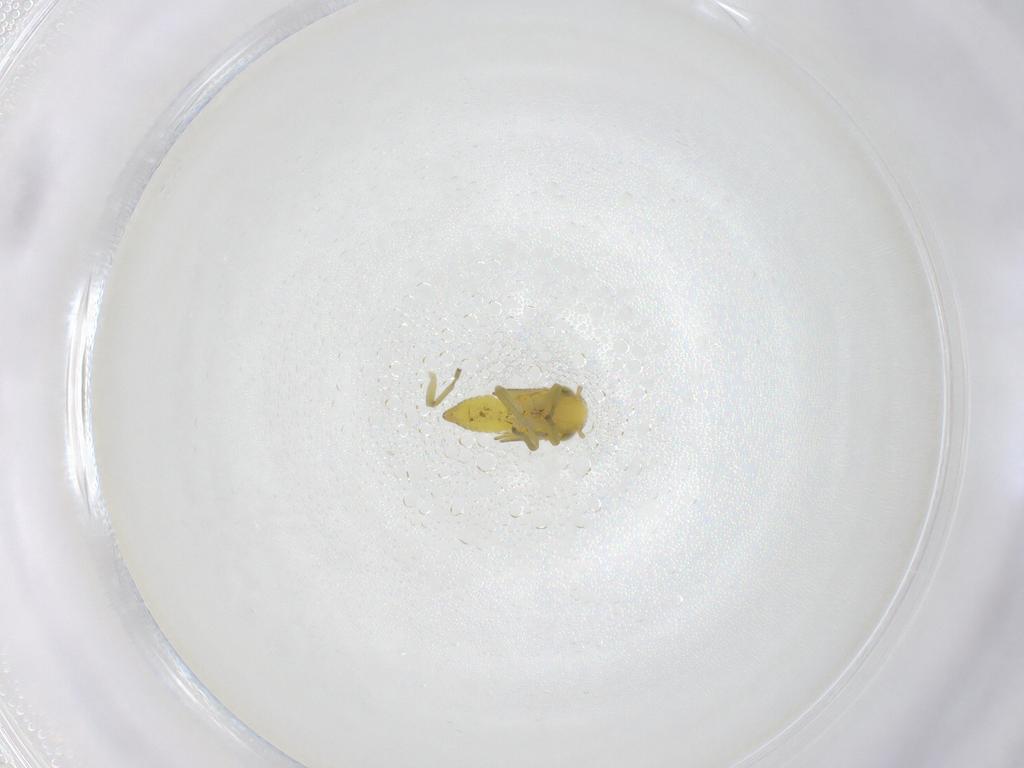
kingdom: Animalia
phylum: Arthropoda
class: Insecta
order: Hemiptera
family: Cicadellidae
